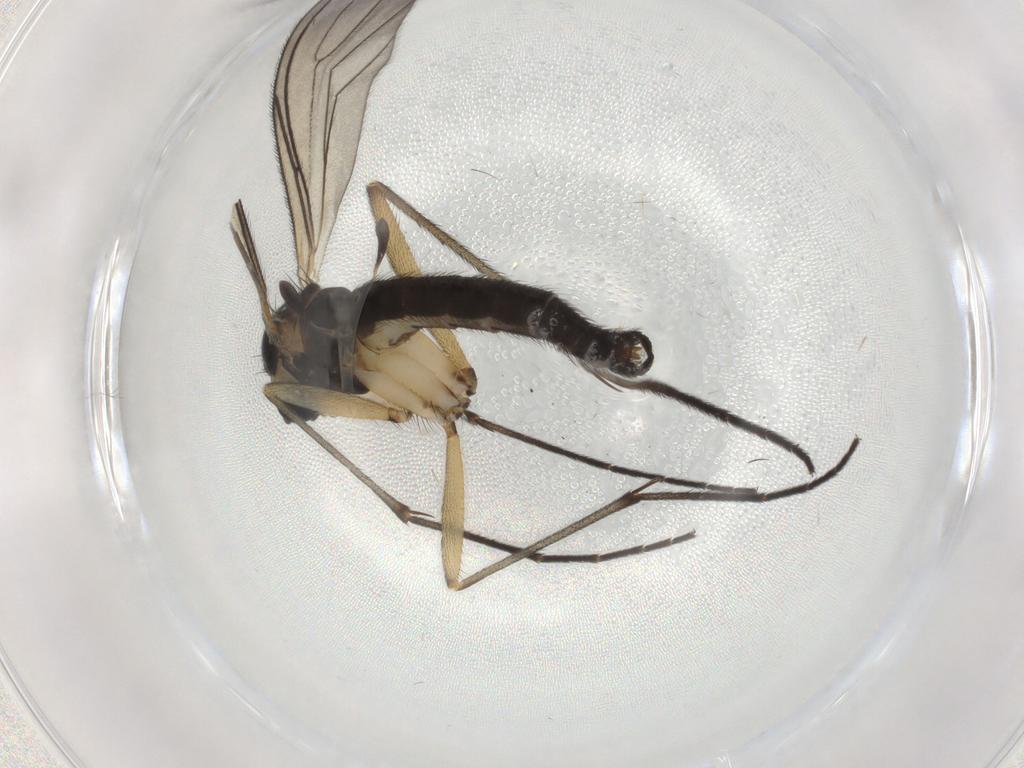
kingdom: Animalia
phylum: Arthropoda
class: Insecta
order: Diptera
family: Sciaridae
